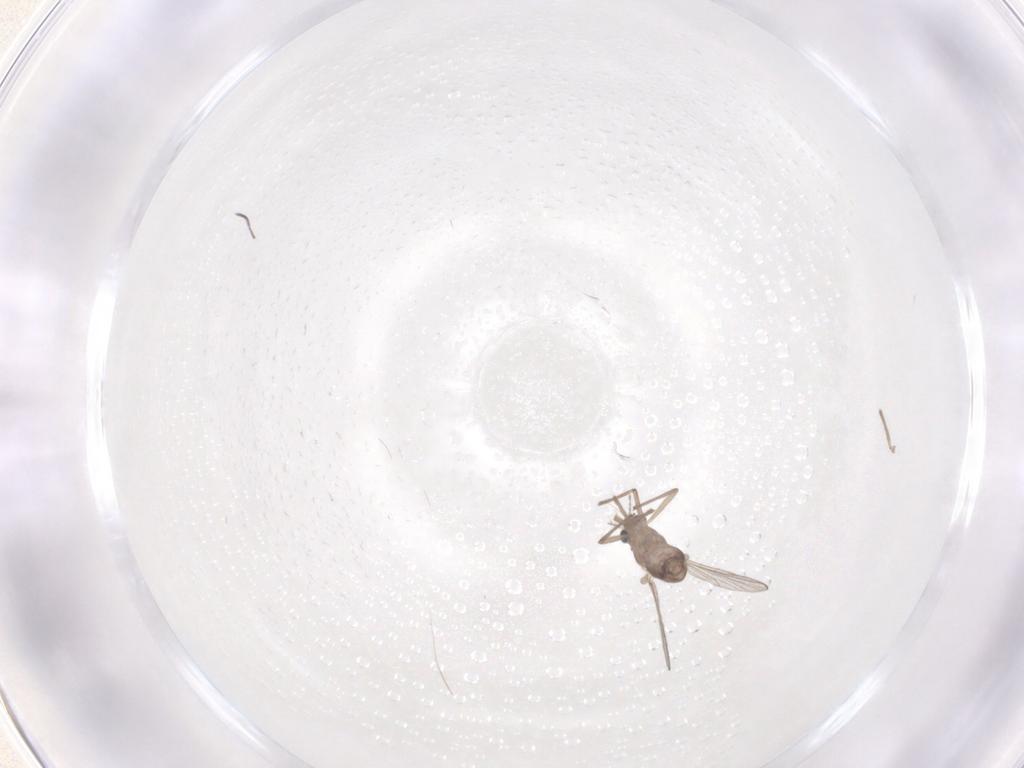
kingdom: Animalia
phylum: Arthropoda
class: Insecta
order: Diptera
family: Chironomidae
